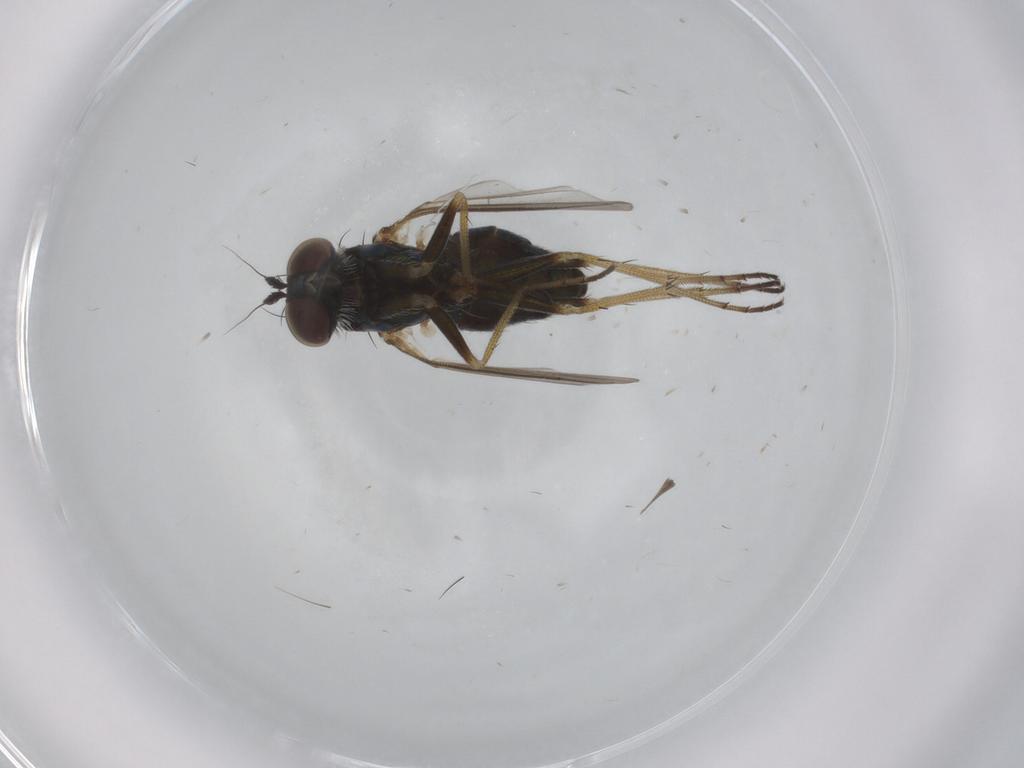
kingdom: Animalia
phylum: Arthropoda
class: Insecta
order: Diptera
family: Dolichopodidae
